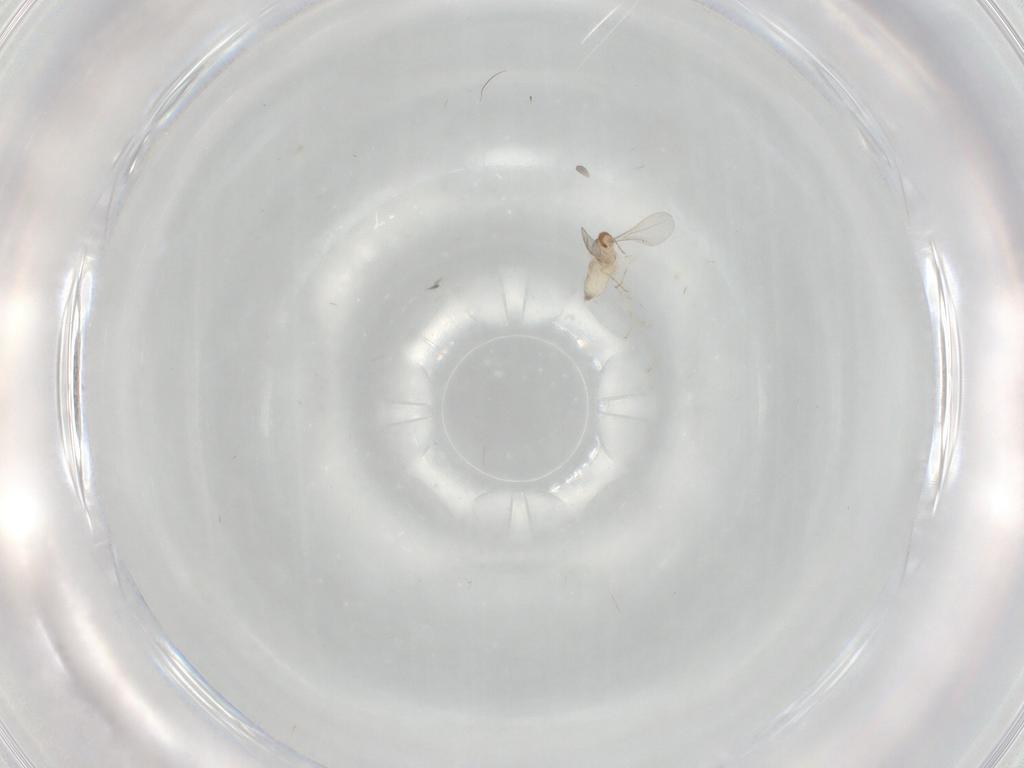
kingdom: Animalia
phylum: Arthropoda
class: Insecta
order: Diptera
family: Cecidomyiidae
